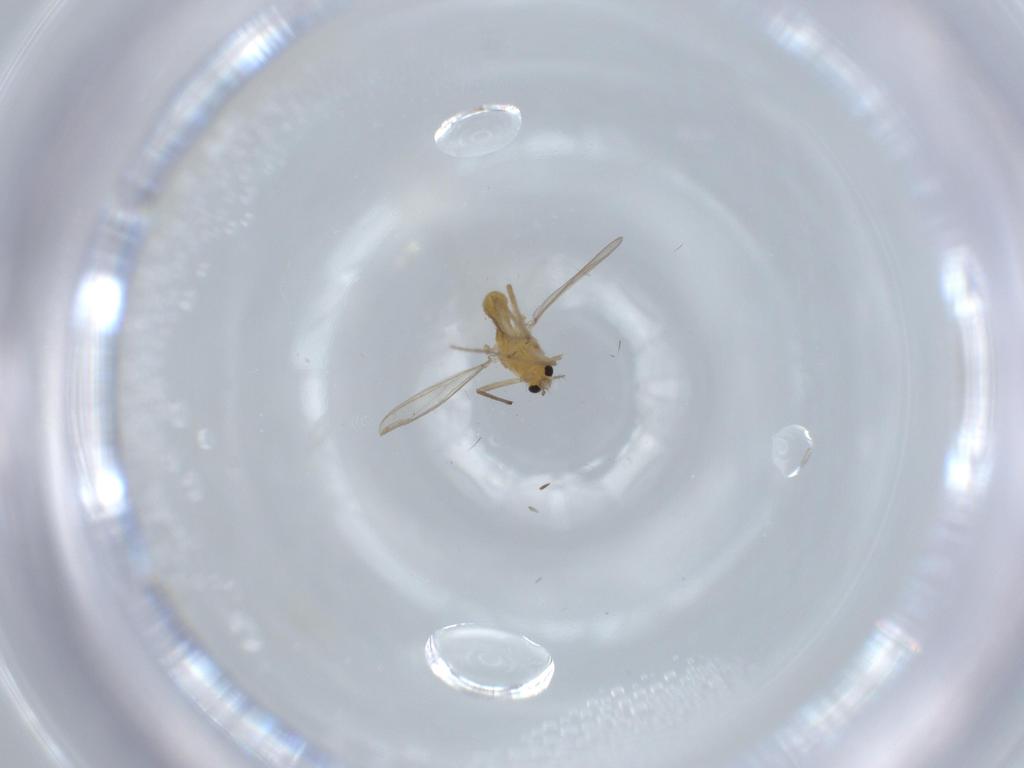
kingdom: Animalia
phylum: Arthropoda
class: Insecta
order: Diptera
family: Chironomidae
